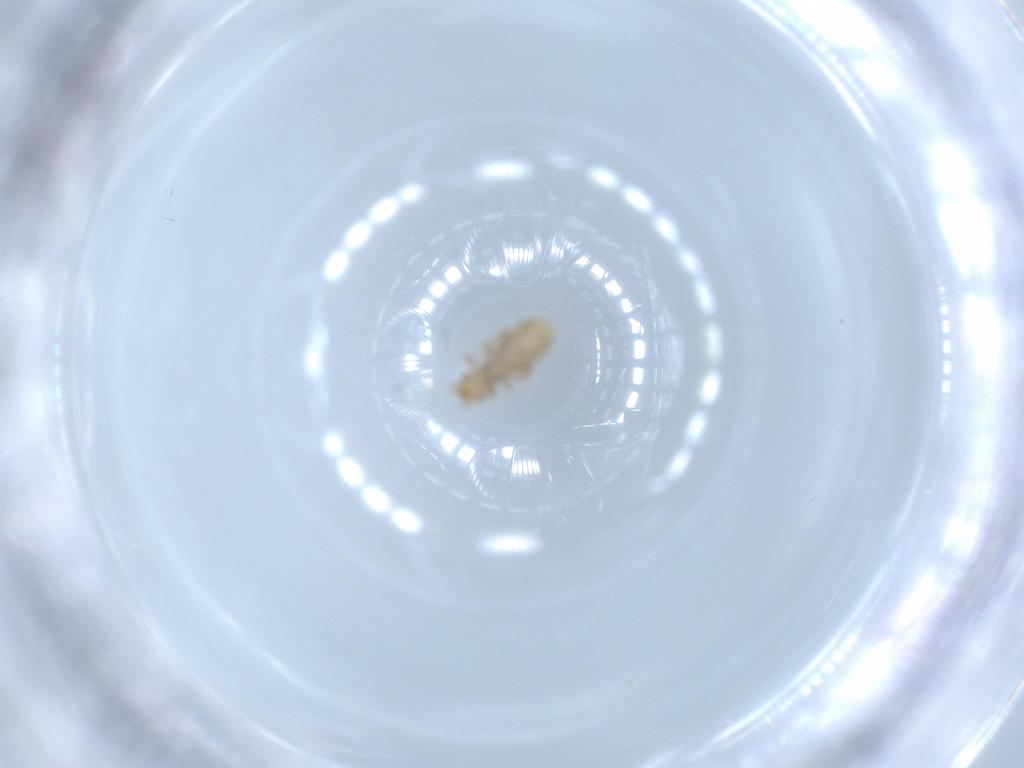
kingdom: Animalia
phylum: Arthropoda
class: Insecta
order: Psocodea
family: Liposcelididae
